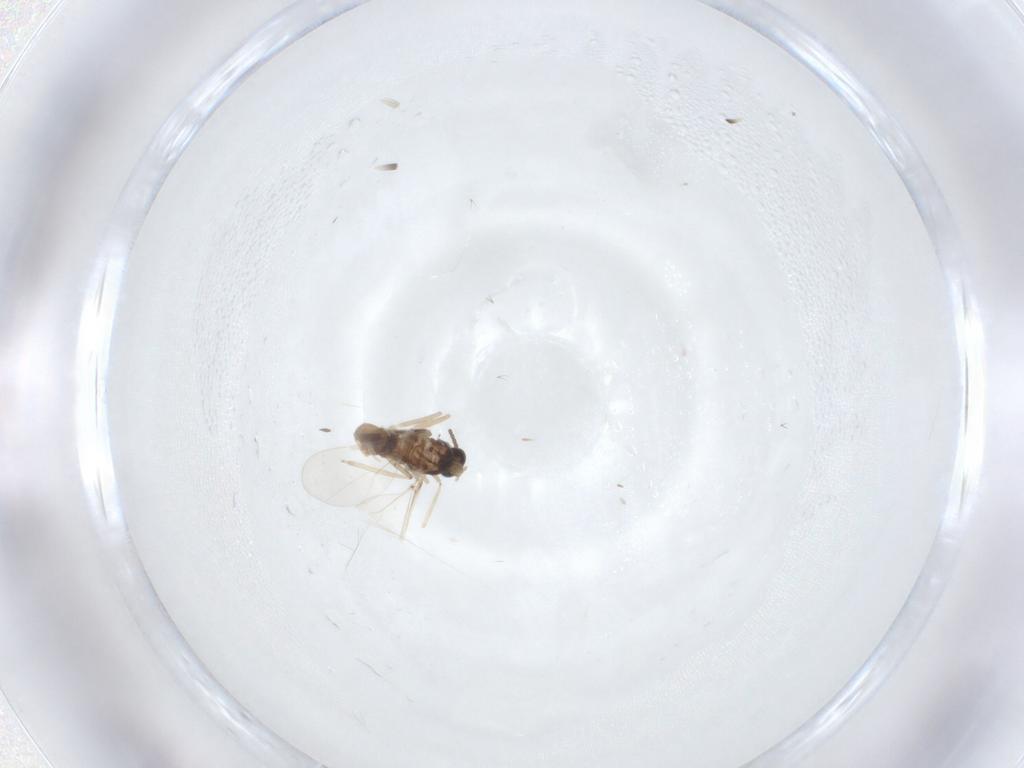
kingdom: Animalia
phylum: Arthropoda
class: Insecta
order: Diptera
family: Cecidomyiidae
